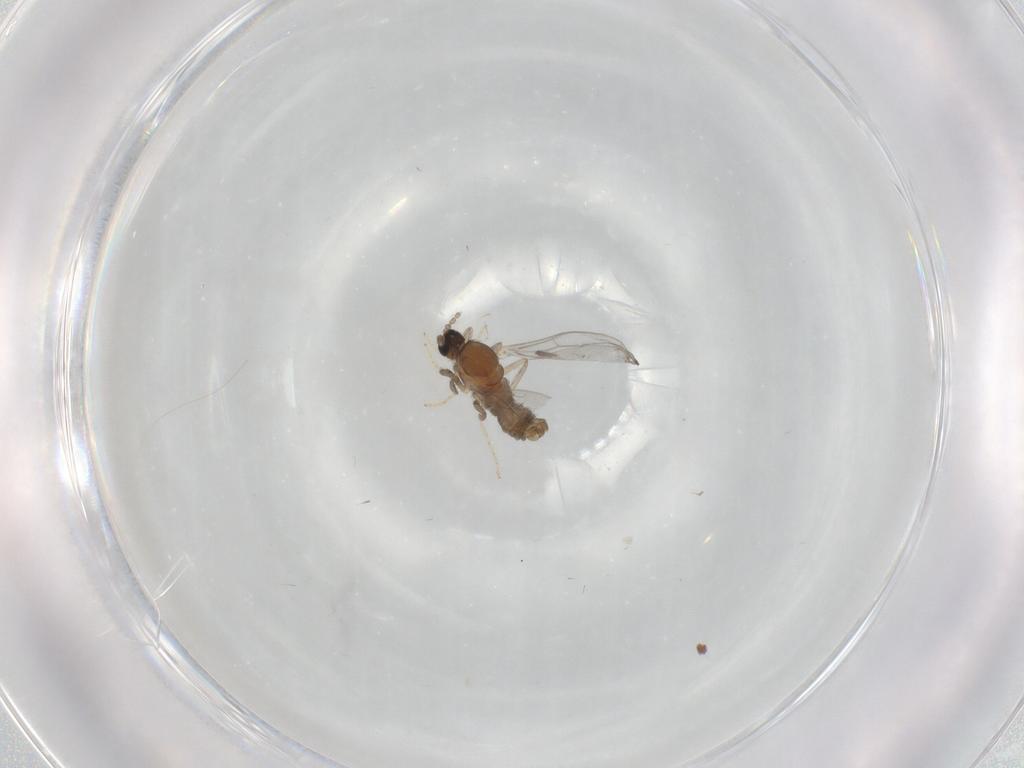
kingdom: Animalia
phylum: Arthropoda
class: Insecta
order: Diptera
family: Cecidomyiidae
